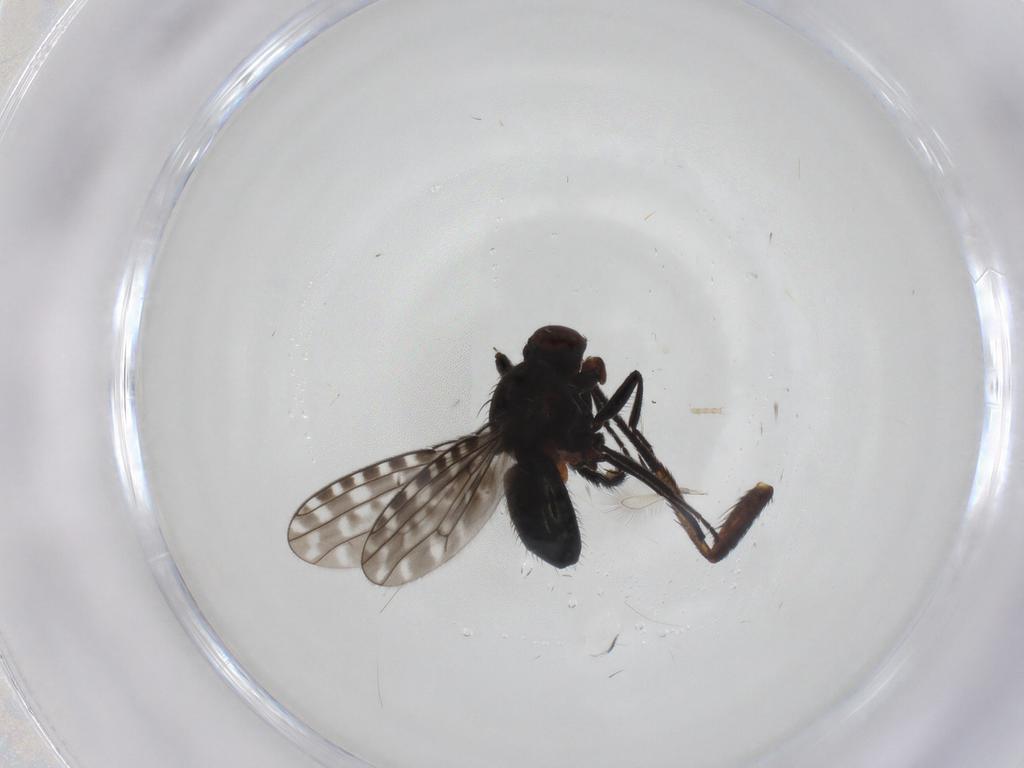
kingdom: Animalia
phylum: Arthropoda
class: Insecta
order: Diptera
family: Ephydridae
